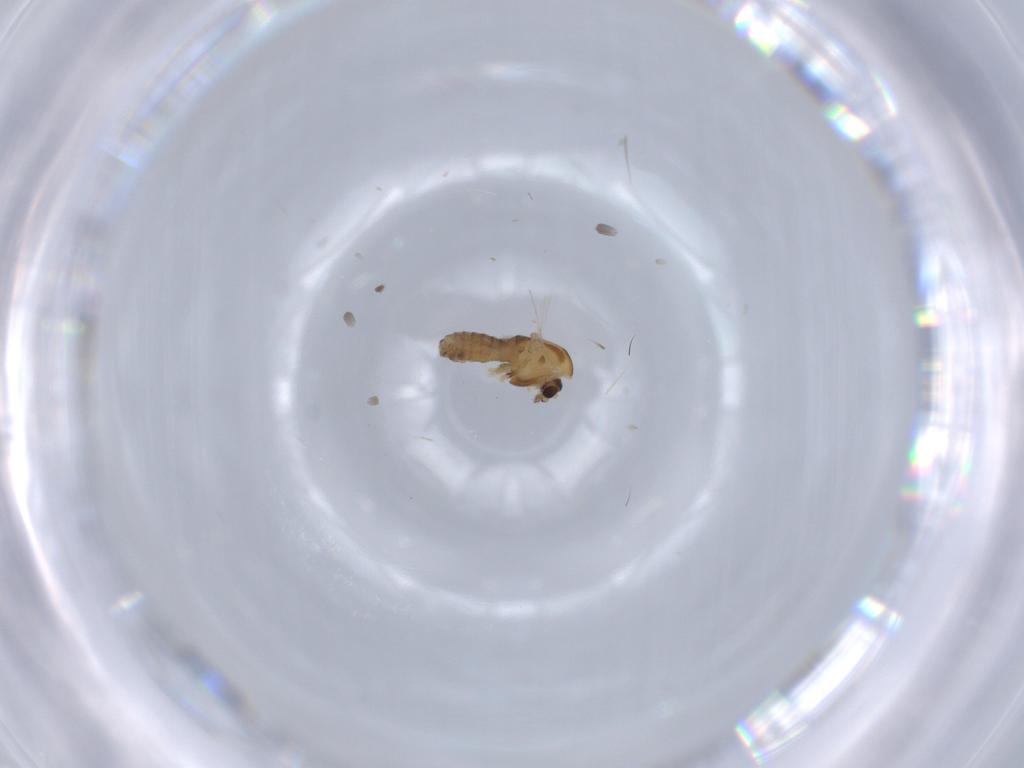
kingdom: Animalia
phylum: Arthropoda
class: Insecta
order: Diptera
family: Chironomidae
